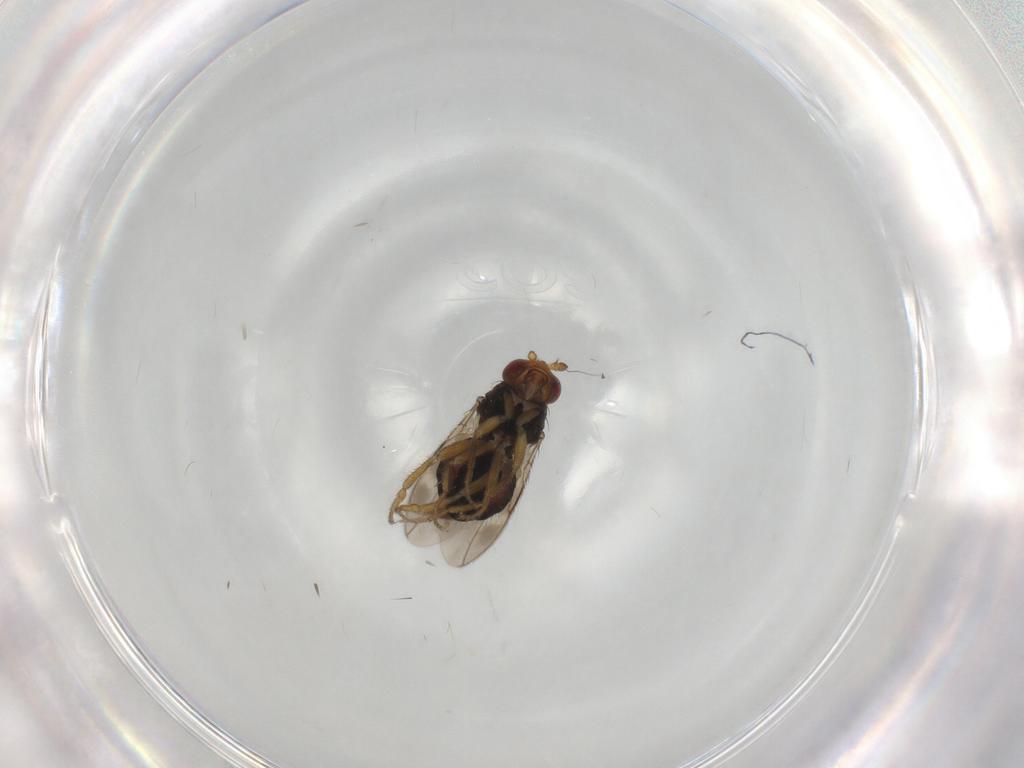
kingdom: Animalia
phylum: Arthropoda
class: Insecta
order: Diptera
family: Sphaeroceridae
